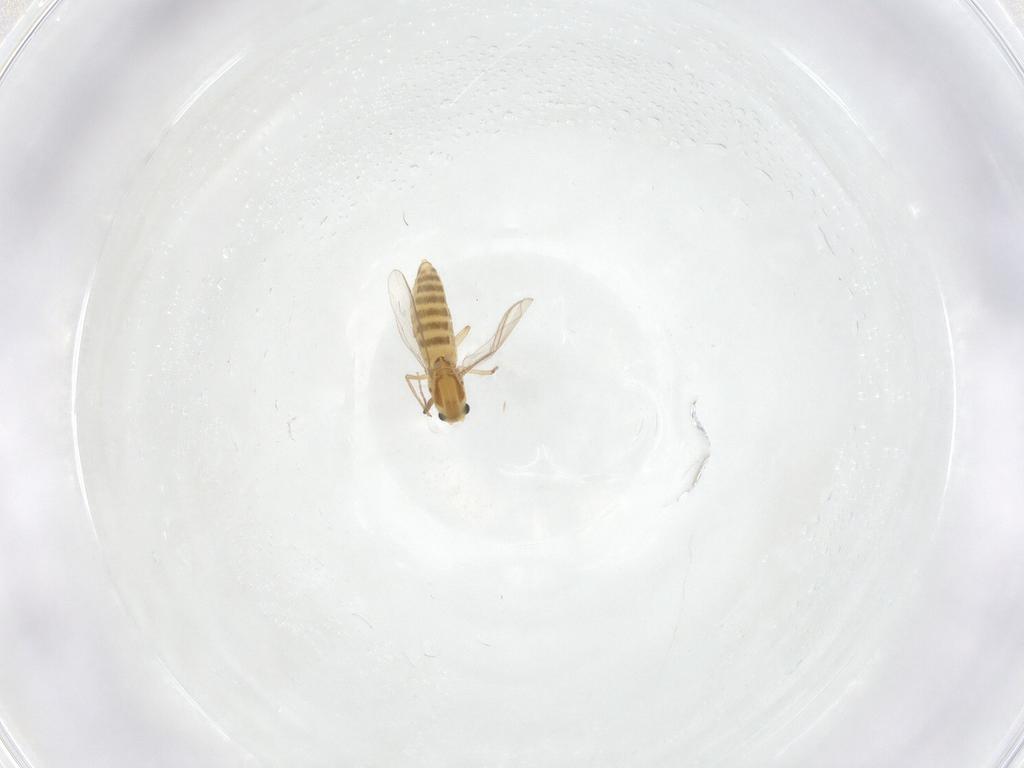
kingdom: Animalia
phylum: Arthropoda
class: Insecta
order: Diptera
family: Chironomidae
